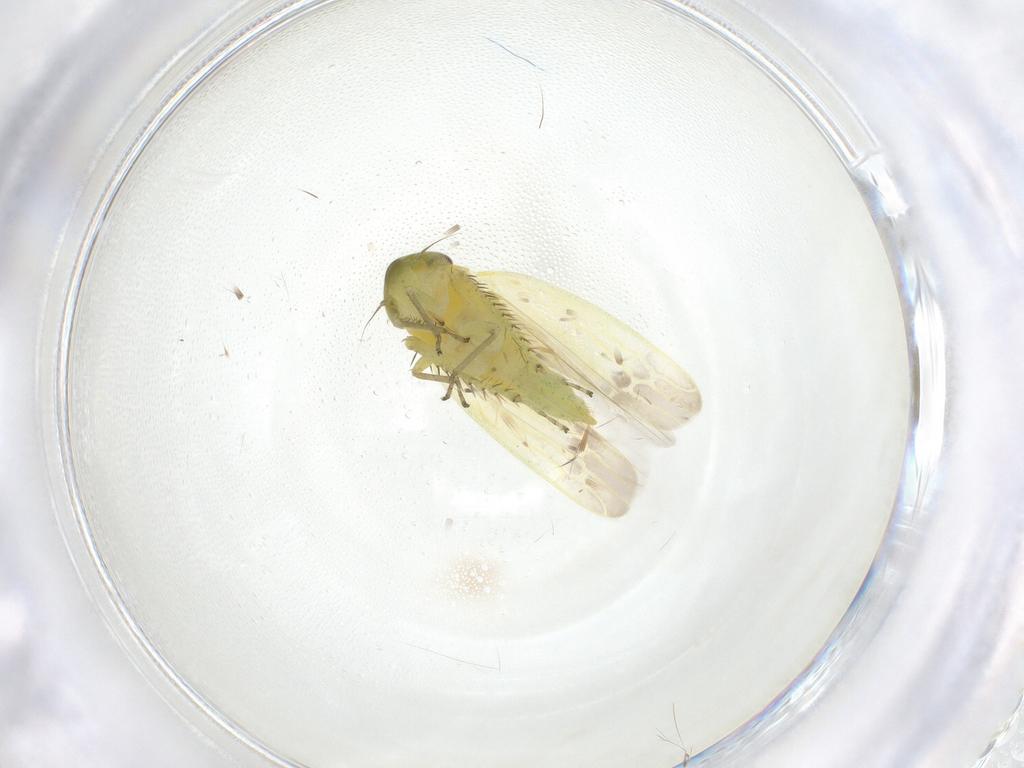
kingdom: Animalia
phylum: Arthropoda
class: Insecta
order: Hemiptera
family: Cicadellidae
